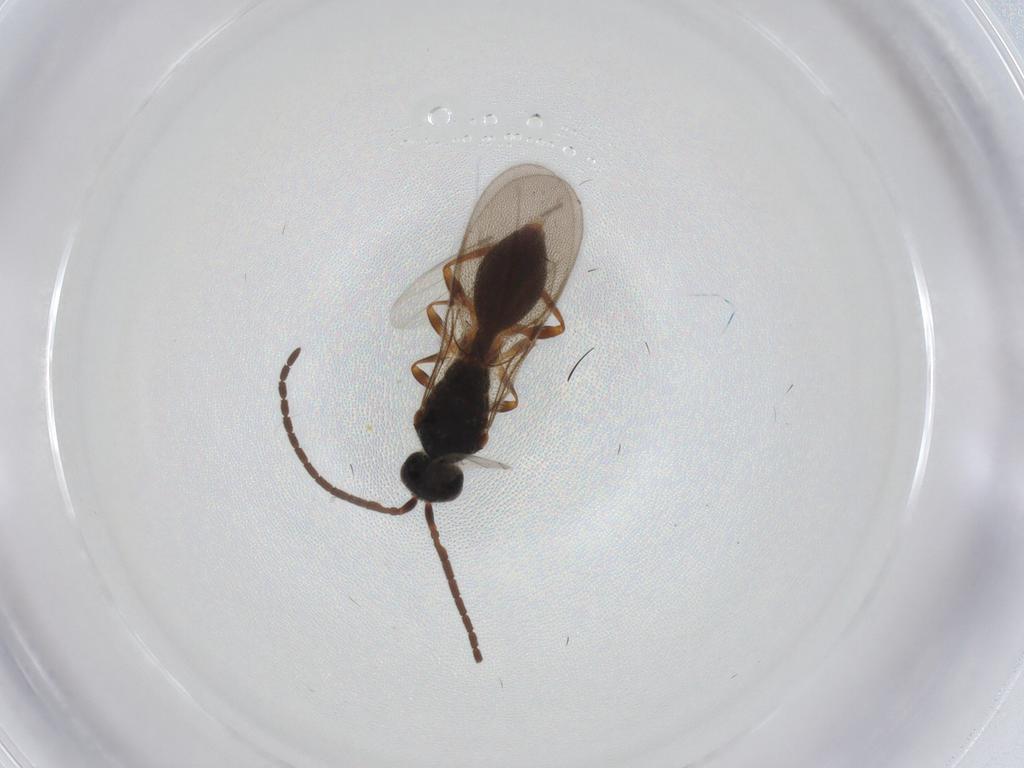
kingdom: Animalia
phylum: Arthropoda
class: Insecta
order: Hymenoptera
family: Diapriidae
